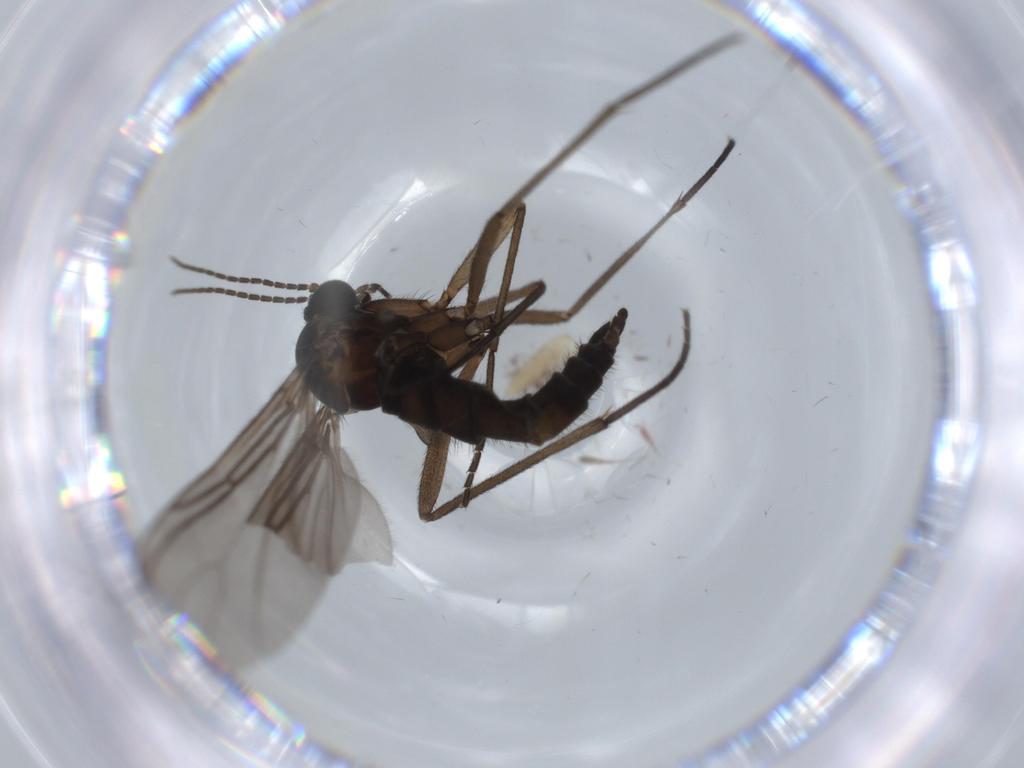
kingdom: Animalia
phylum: Arthropoda
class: Insecta
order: Diptera
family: Sciaridae
